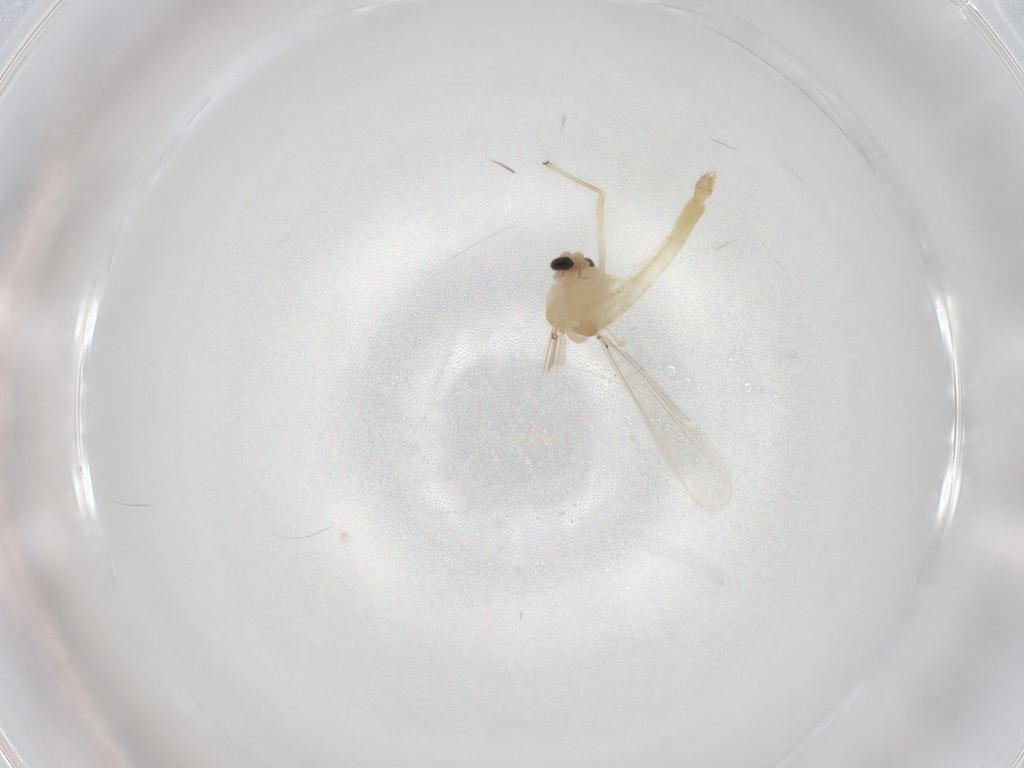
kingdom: Animalia
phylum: Arthropoda
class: Insecta
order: Diptera
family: Chironomidae
